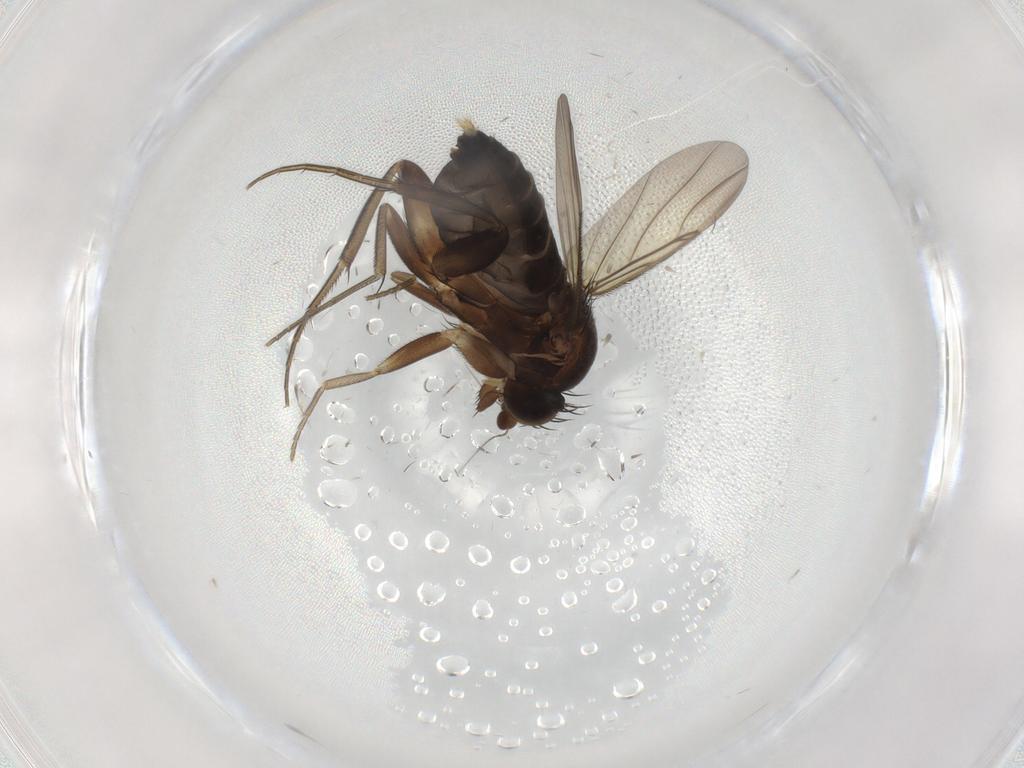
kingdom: Animalia
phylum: Arthropoda
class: Insecta
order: Diptera
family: Phoridae
